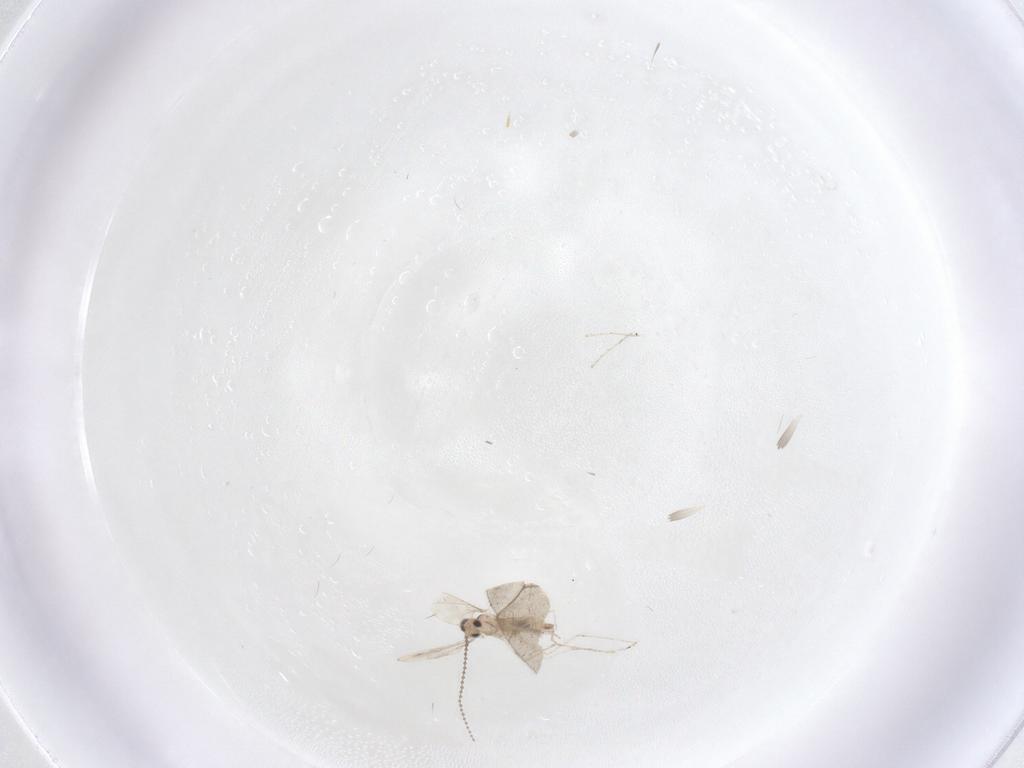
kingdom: Animalia
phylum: Arthropoda
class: Insecta
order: Diptera
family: Cecidomyiidae
